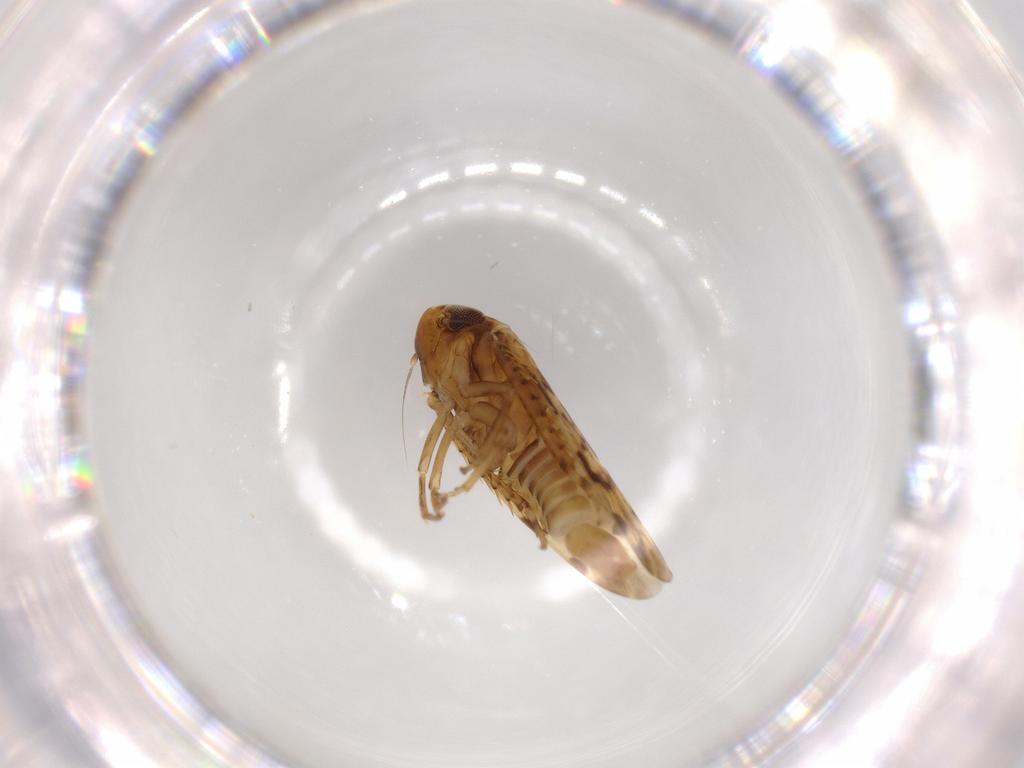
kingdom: Animalia
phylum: Arthropoda
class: Insecta
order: Hemiptera
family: Cicadellidae
